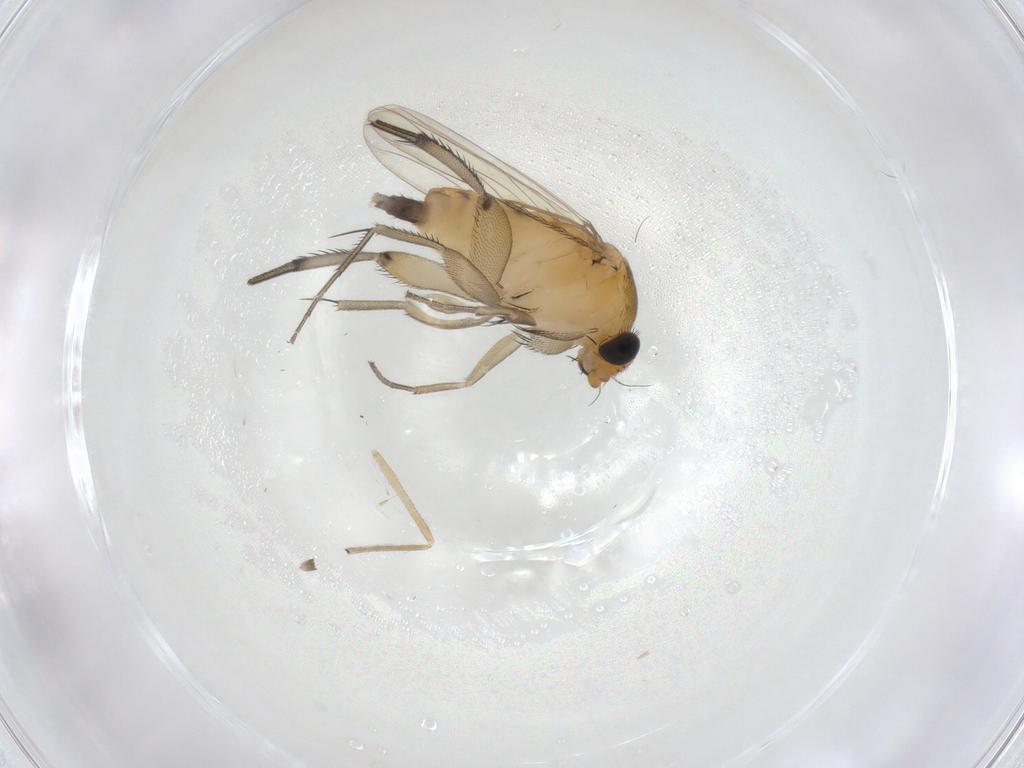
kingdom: Animalia
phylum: Arthropoda
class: Insecta
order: Diptera
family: Phoridae
